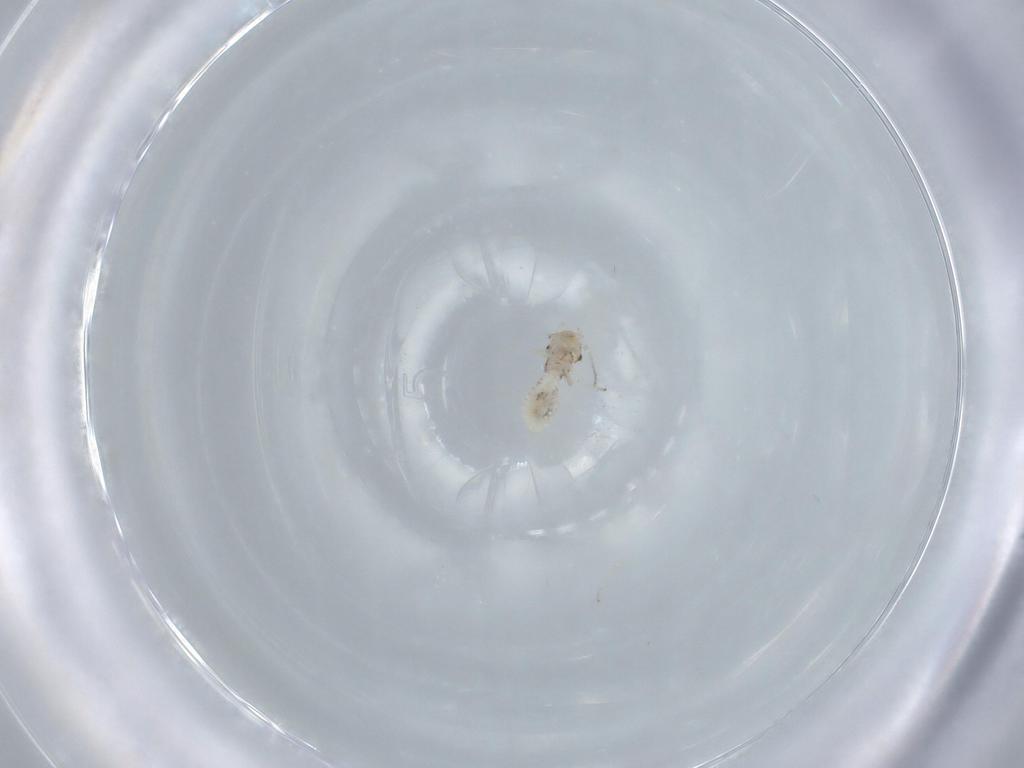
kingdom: Animalia
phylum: Arthropoda
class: Insecta
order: Psocodea
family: Lachesillidae
